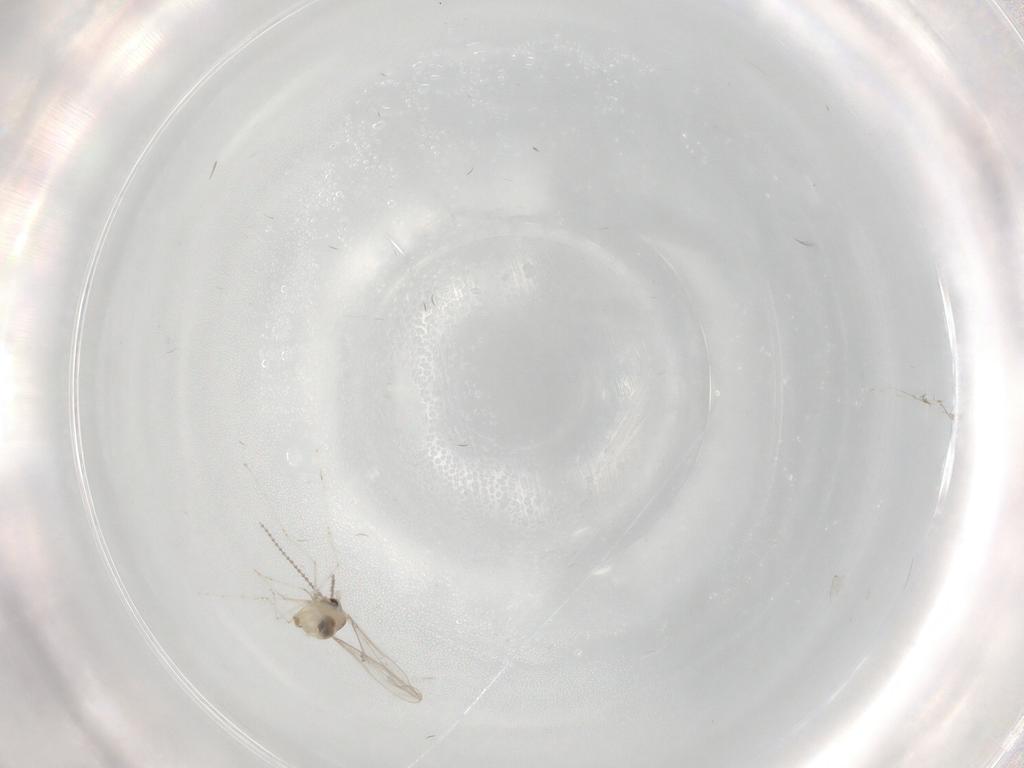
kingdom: Animalia
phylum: Arthropoda
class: Insecta
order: Diptera
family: Cecidomyiidae
